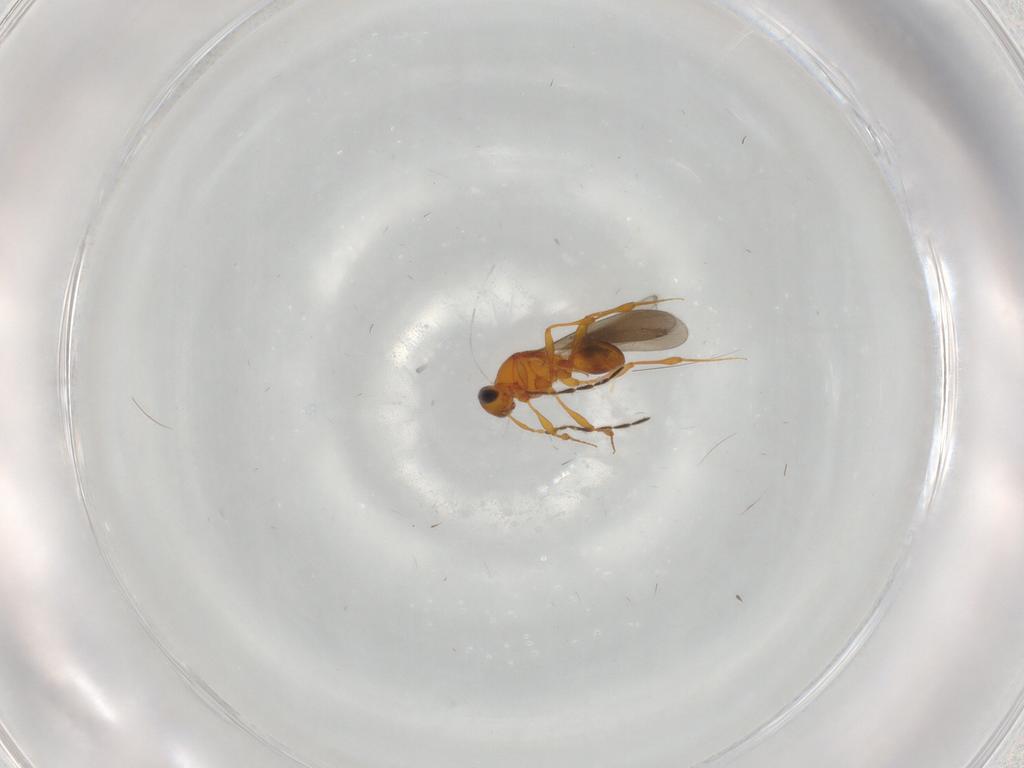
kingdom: Animalia
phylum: Arthropoda
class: Insecta
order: Hymenoptera
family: Platygastridae
